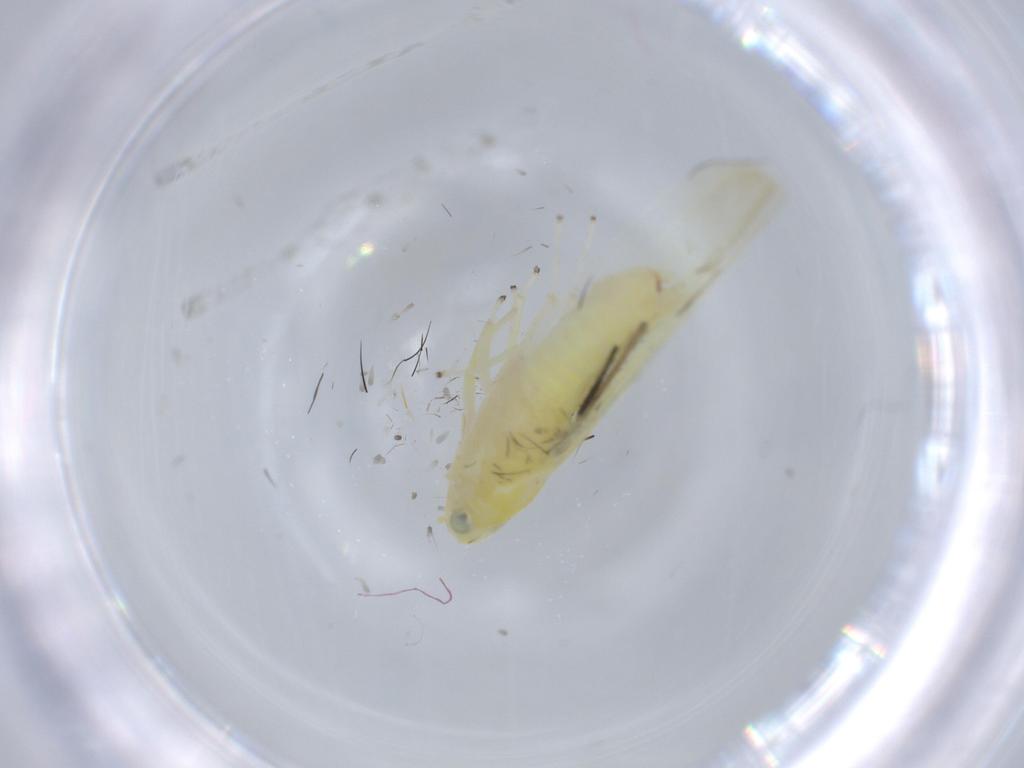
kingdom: Animalia
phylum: Arthropoda
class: Insecta
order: Hemiptera
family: Cicadellidae
